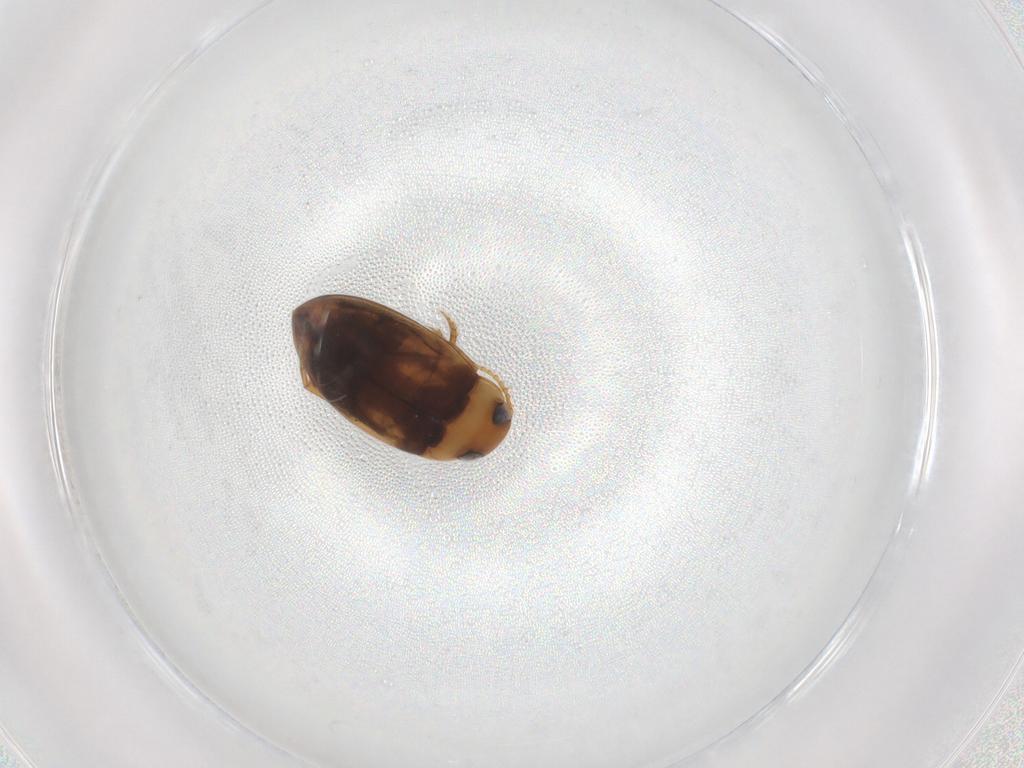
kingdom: Animalia
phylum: Arthropoda
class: Insecta
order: Coleoptera
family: Dytiscidae
